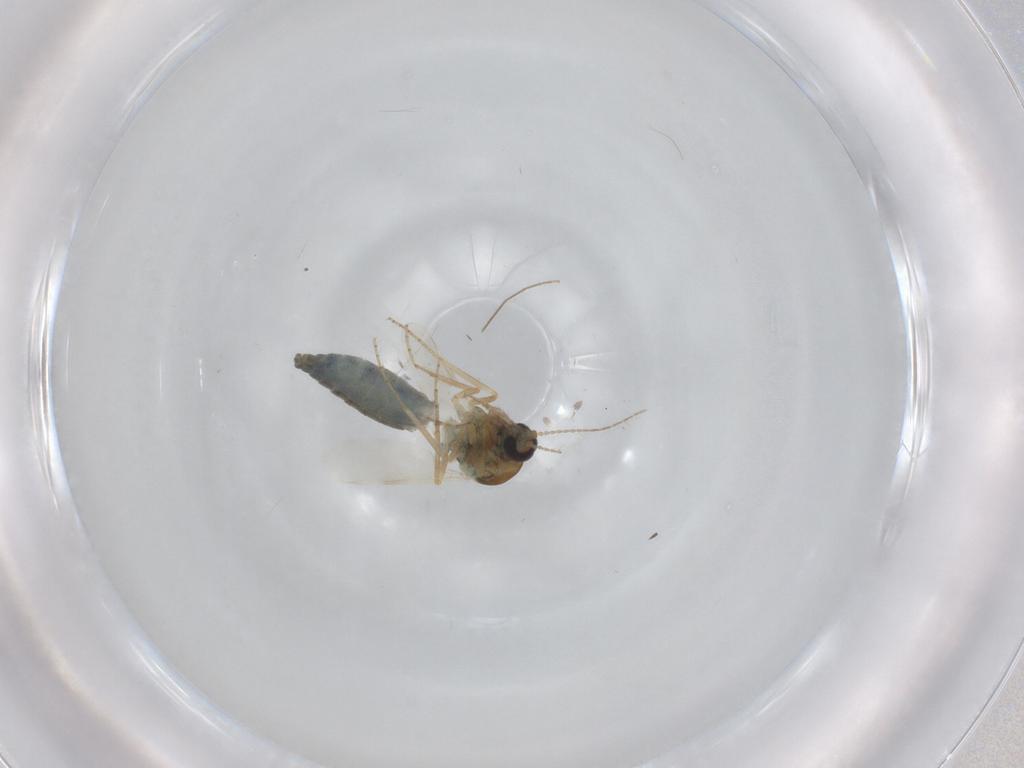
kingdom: Animalia
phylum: Arthropoda
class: Insecta
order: Diptera
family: Ceratopogonidae
